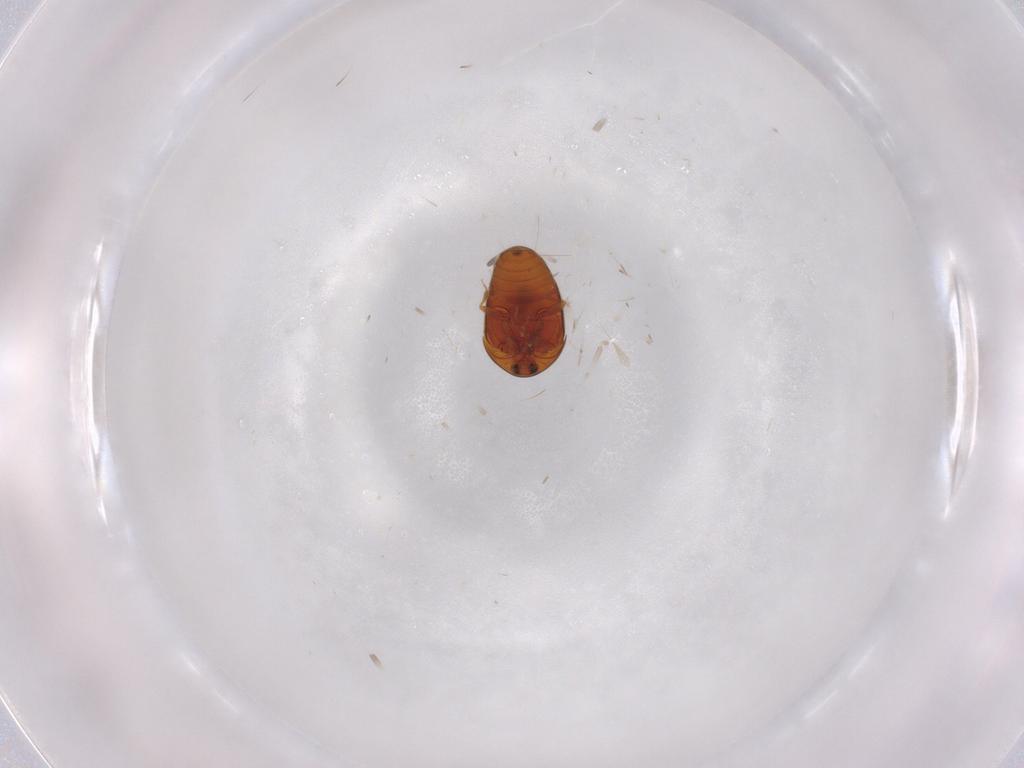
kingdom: Animalia
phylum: Arthropoda
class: Insecta
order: Coleoptera
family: Corylophidae
